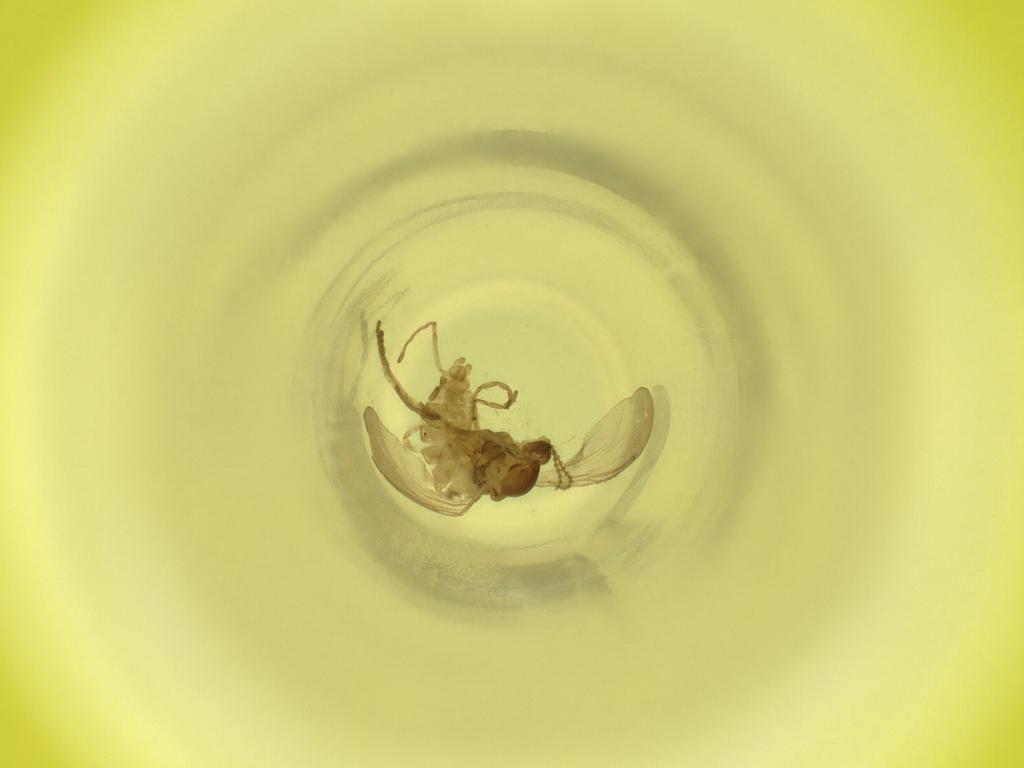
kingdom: Animalia
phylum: Arthropoda
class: Insecta
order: Diptera
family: Cecidomyiidae
